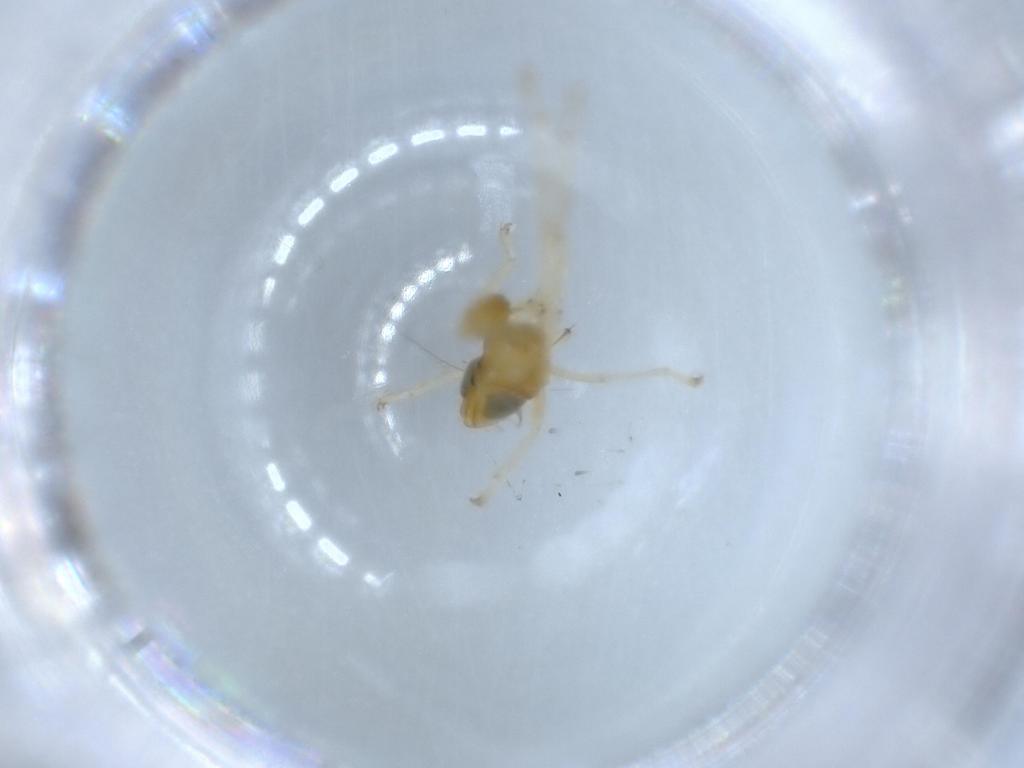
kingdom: Animalia
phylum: Arthropoda
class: Insecta
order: Hemiptera
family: Cicadellidae
